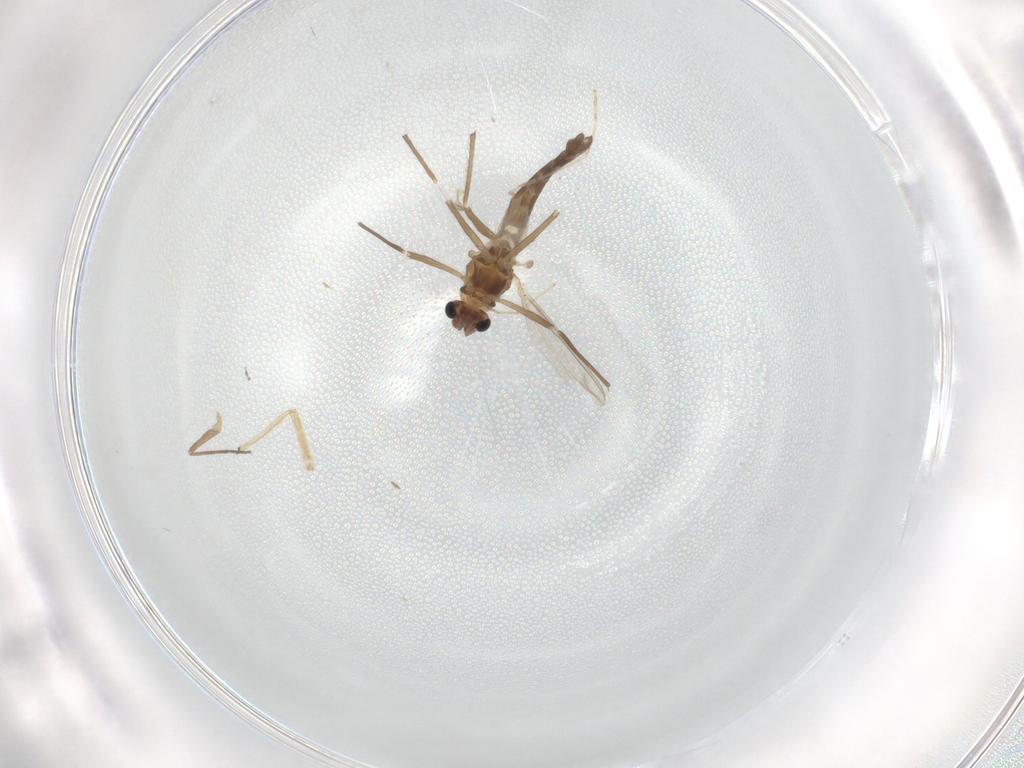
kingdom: Animalia
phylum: Arthropoda
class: Insecta
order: Diptera
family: Chironomidae
